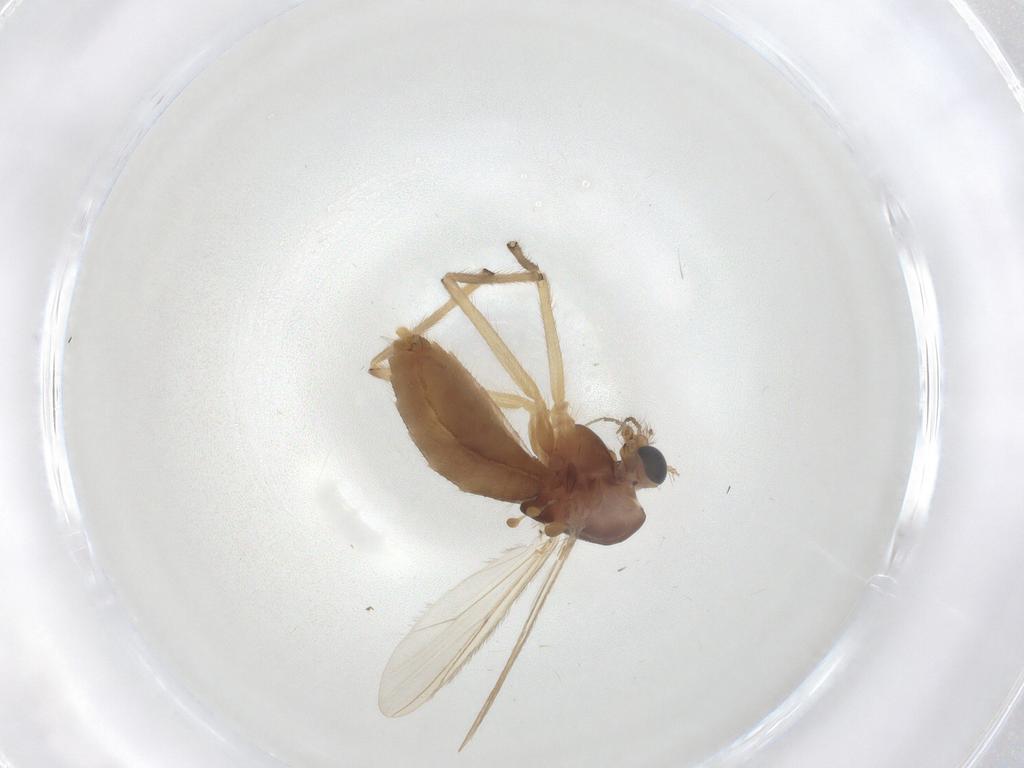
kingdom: Animalia
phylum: Arthropoda
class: Insecta
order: Diptera
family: Chironomidae
